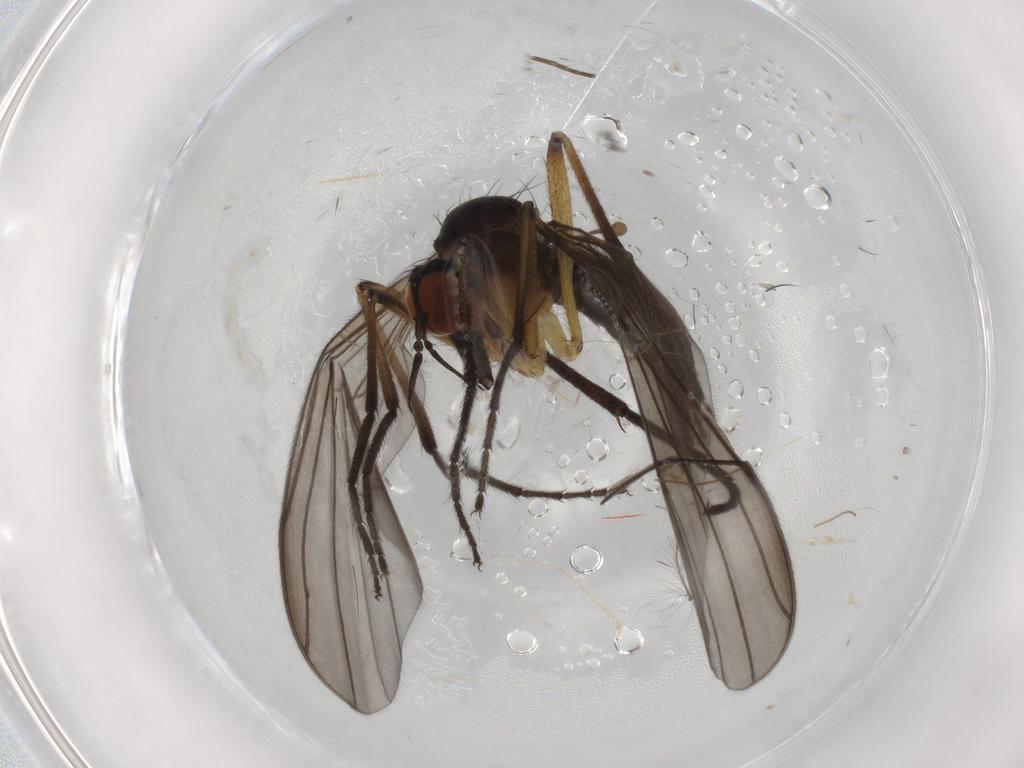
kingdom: Animalia
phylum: Arthropoda
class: Insecta
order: Diptera
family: Empididae
